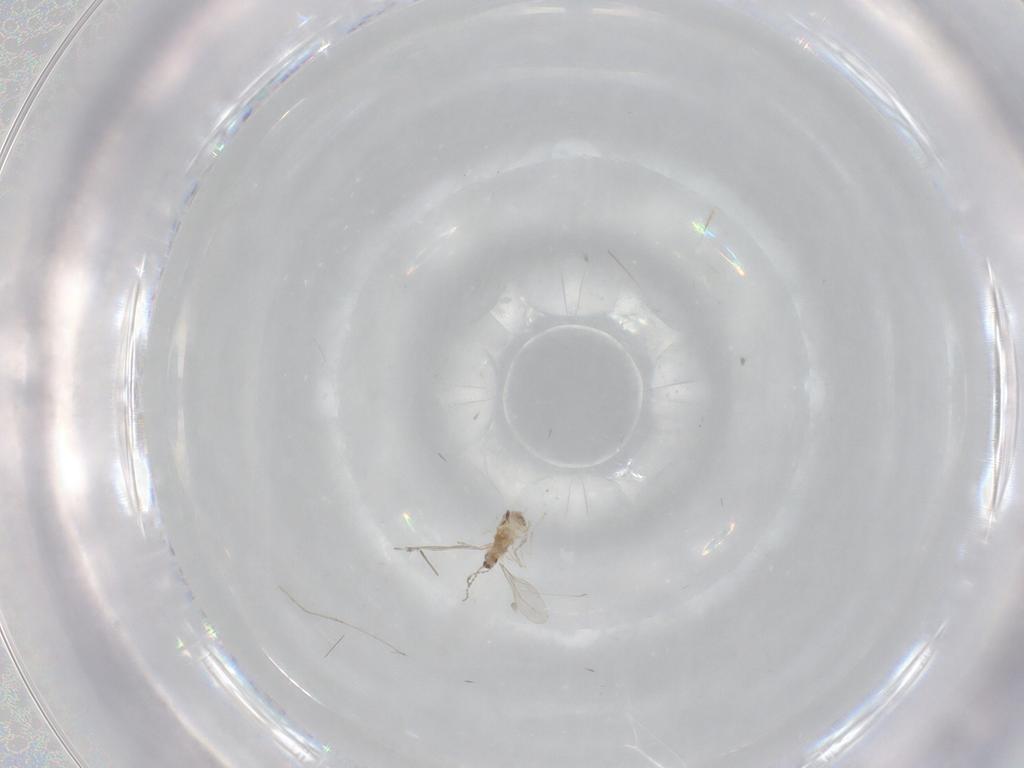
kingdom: Animalia
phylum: Arthropoda
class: Insecta
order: Diptera
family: Cecidomyiidae
